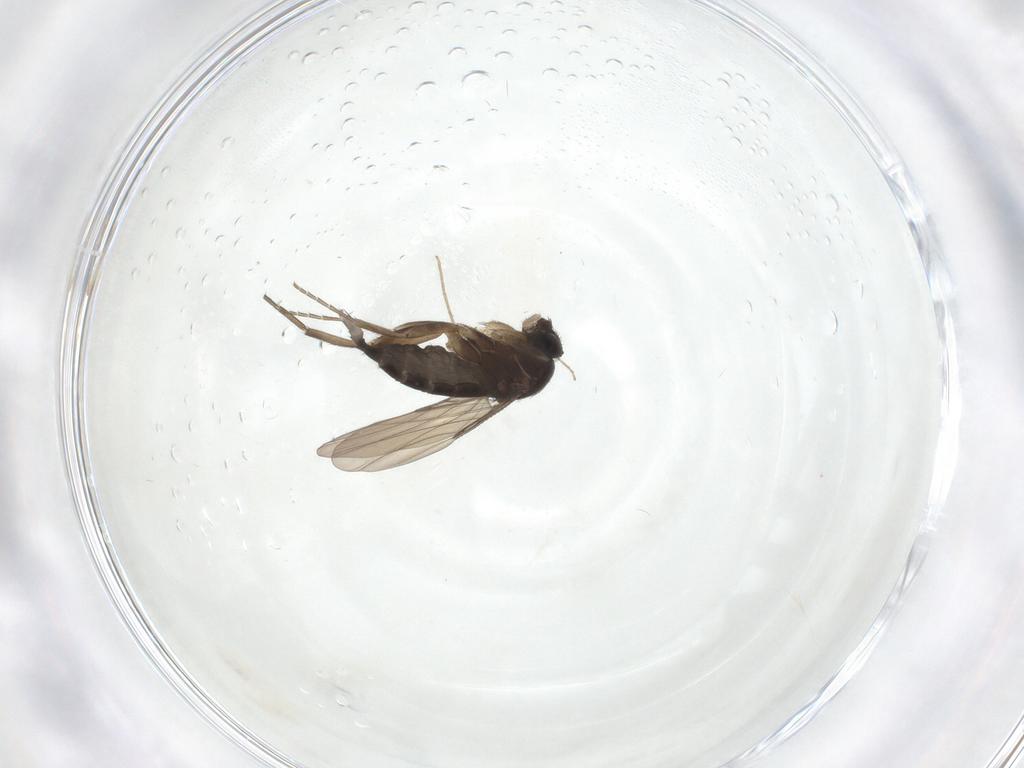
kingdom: Animalia
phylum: Arthropoda
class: Insecta
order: Diptera
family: Phoridae
